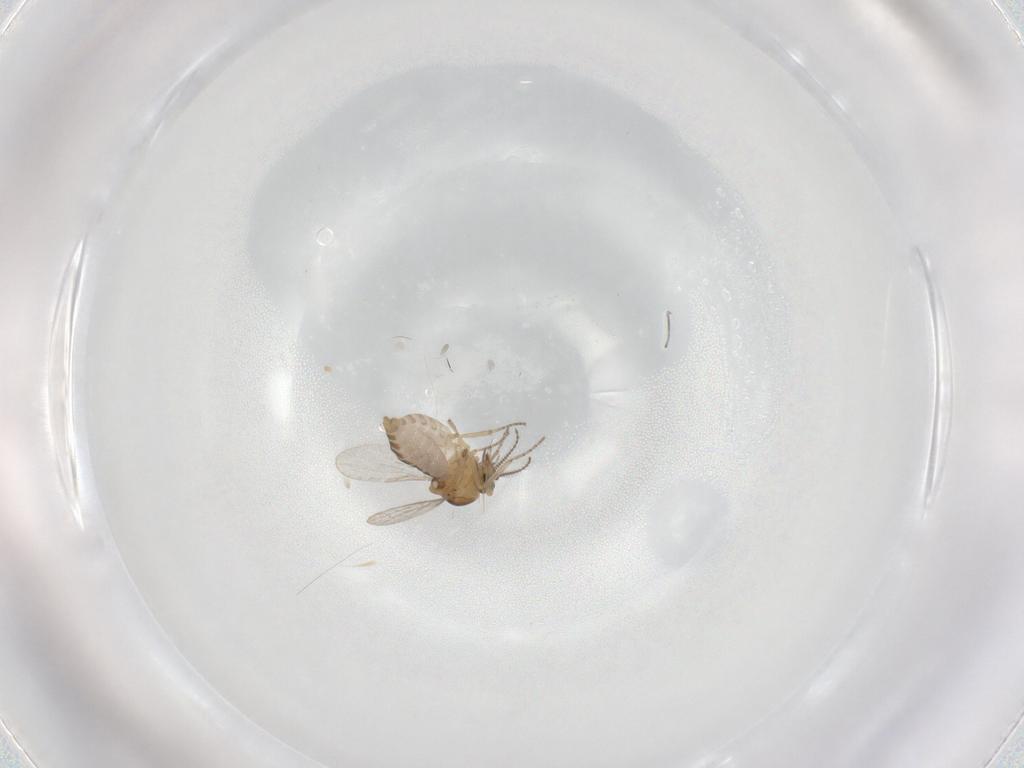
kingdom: Animalia
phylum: Arthropoda
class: Insecta
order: Diptera
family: Ceratopogonidae
